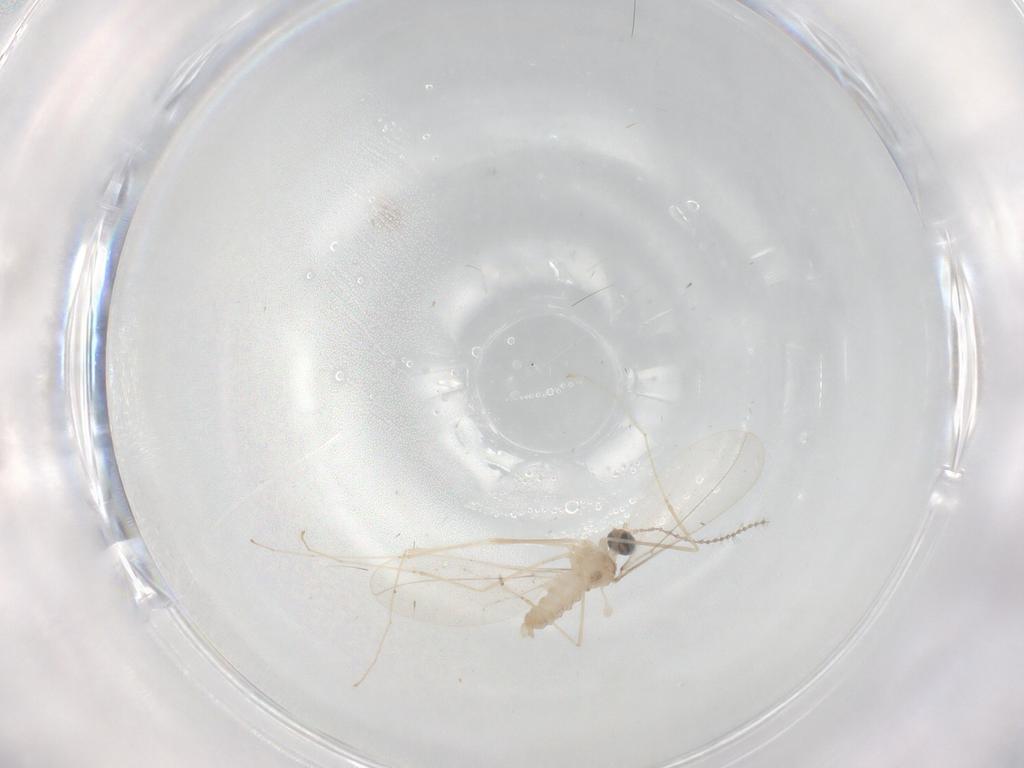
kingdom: Animalia
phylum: Arthropoda
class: Insecta
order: Diptera
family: Cecidomyiidae
